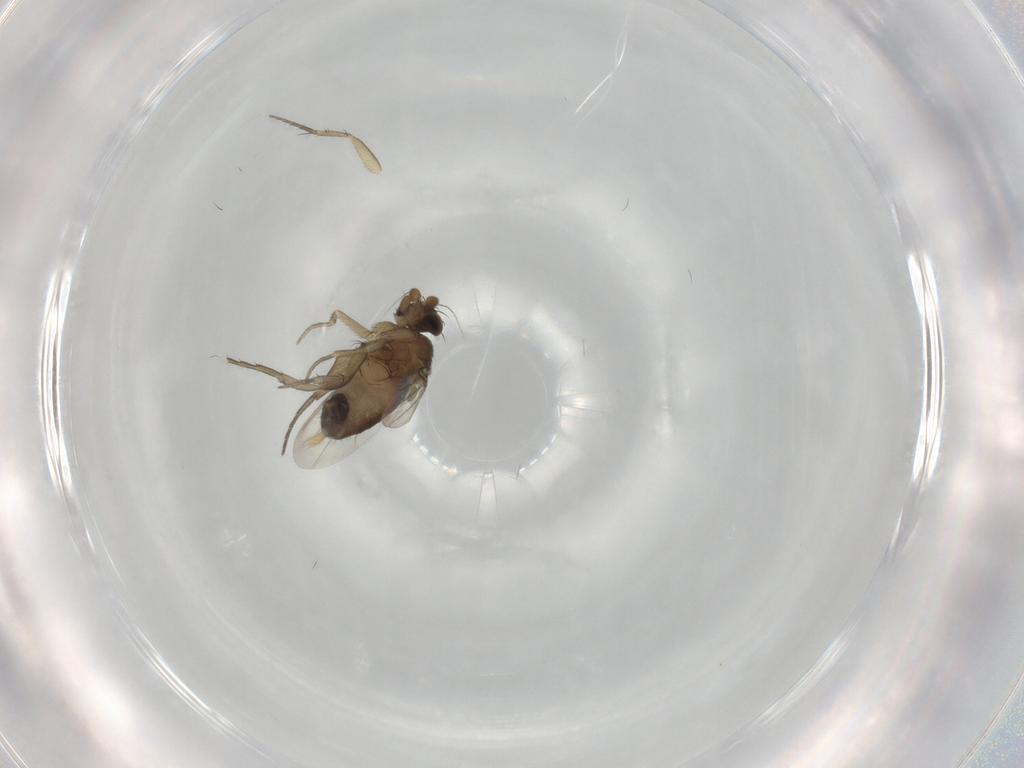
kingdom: Animalia
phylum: Arthropoda
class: Insecta
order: Diptera
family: Phoridae
